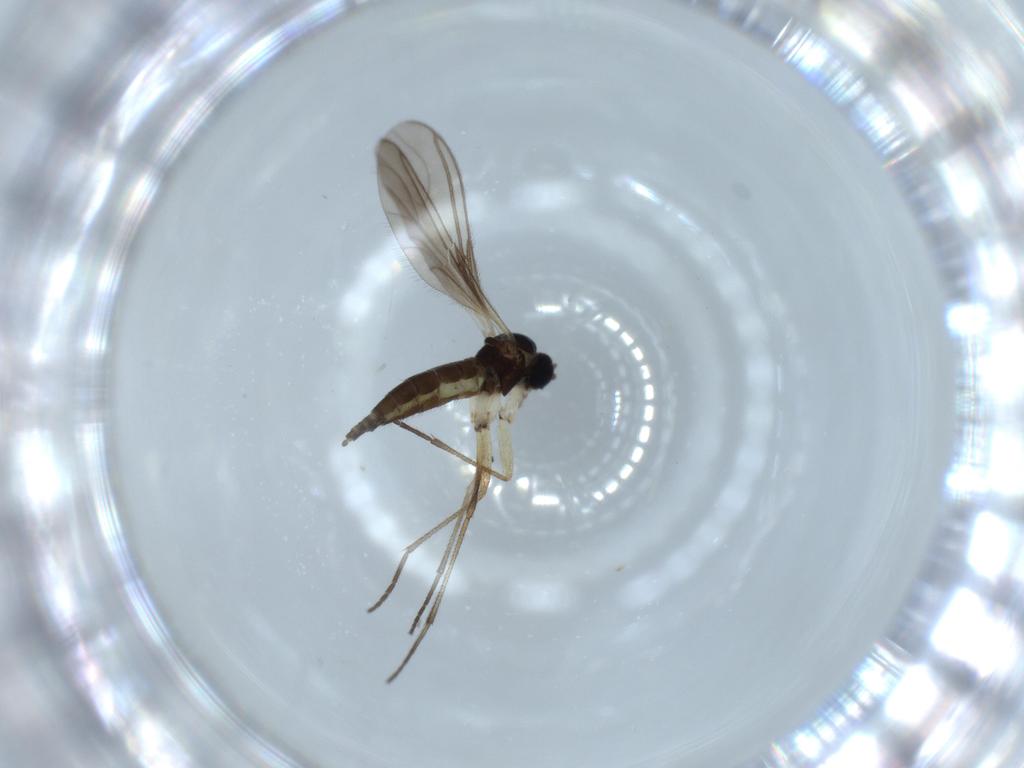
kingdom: Animalia
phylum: Arthropoda
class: Insecta
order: Diptera
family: Sciaridae
